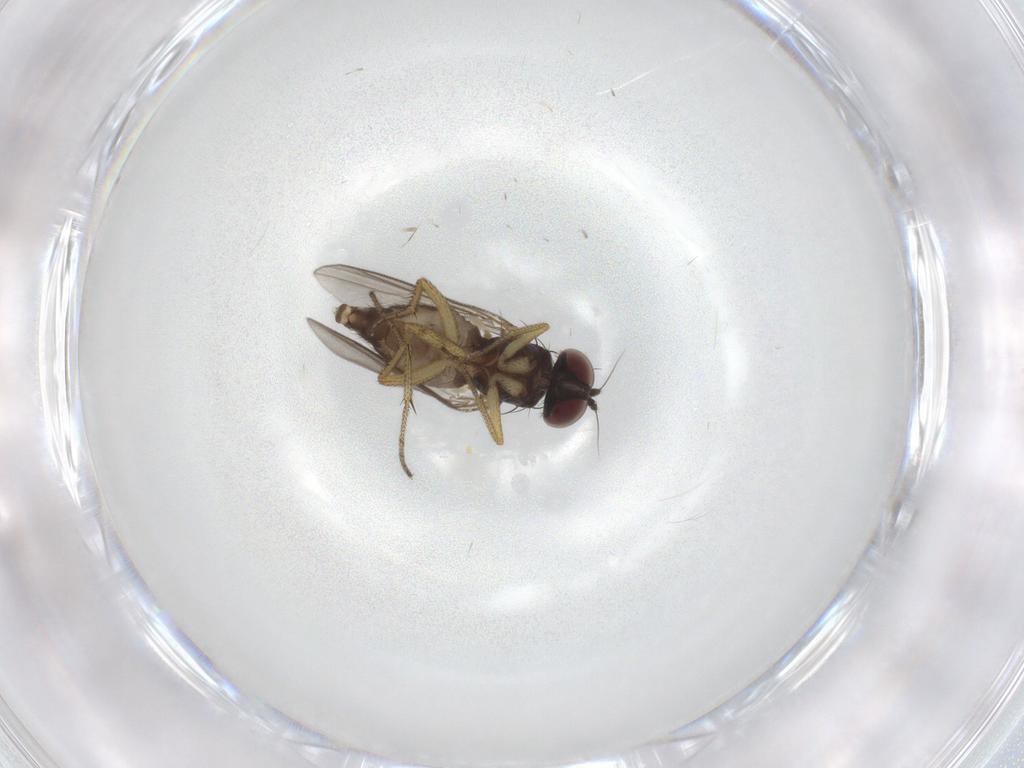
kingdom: Animalia
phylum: Arthropoda
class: Insecta
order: Diptera
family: Dolichopodidae
